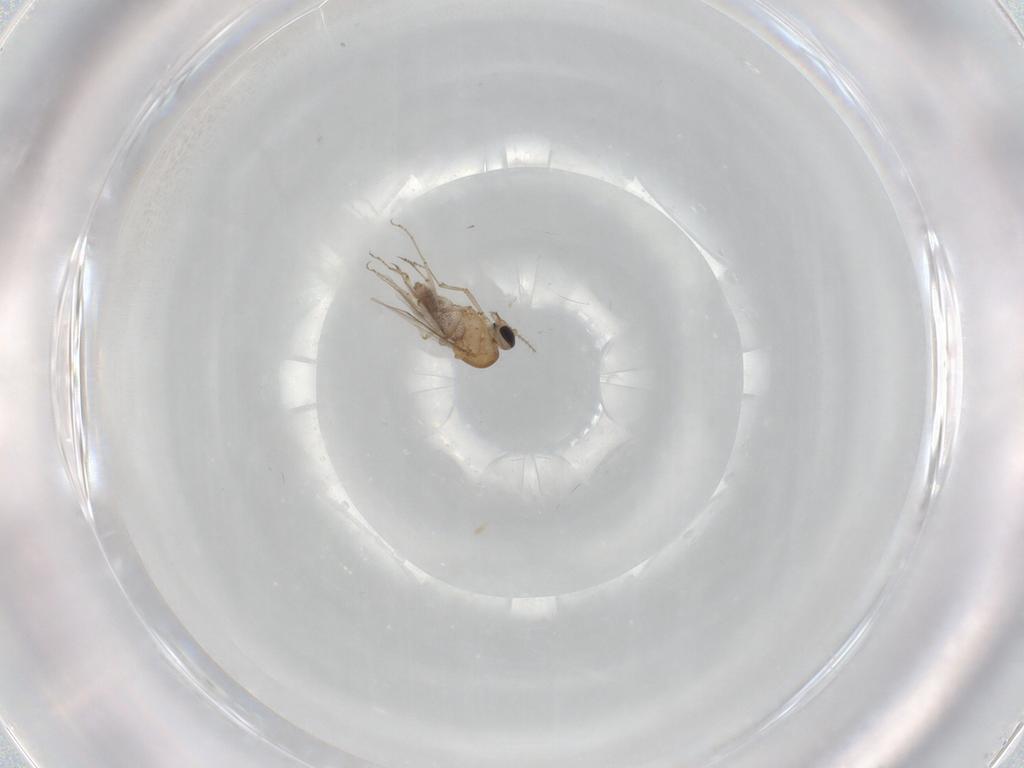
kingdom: Animalia
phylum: Arthropoda
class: Insecta
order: Diptera
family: Ceratopogonidae
